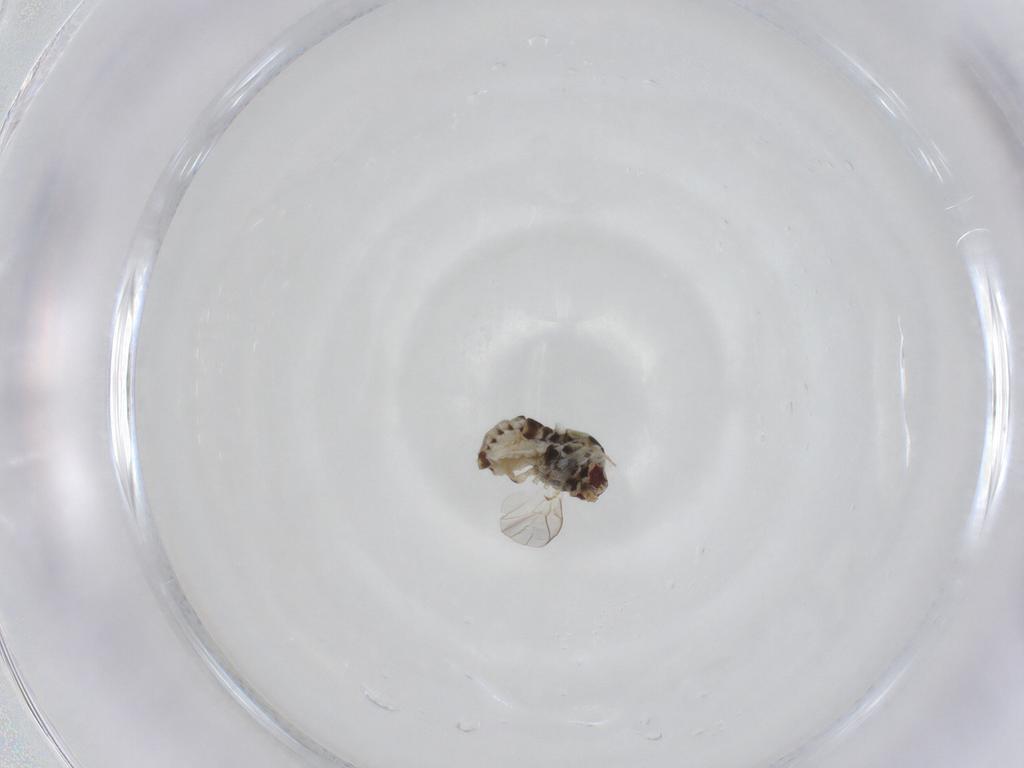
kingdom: Animalia
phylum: Arthropoda
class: Insecta
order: Diptera
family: Bombyliidae
